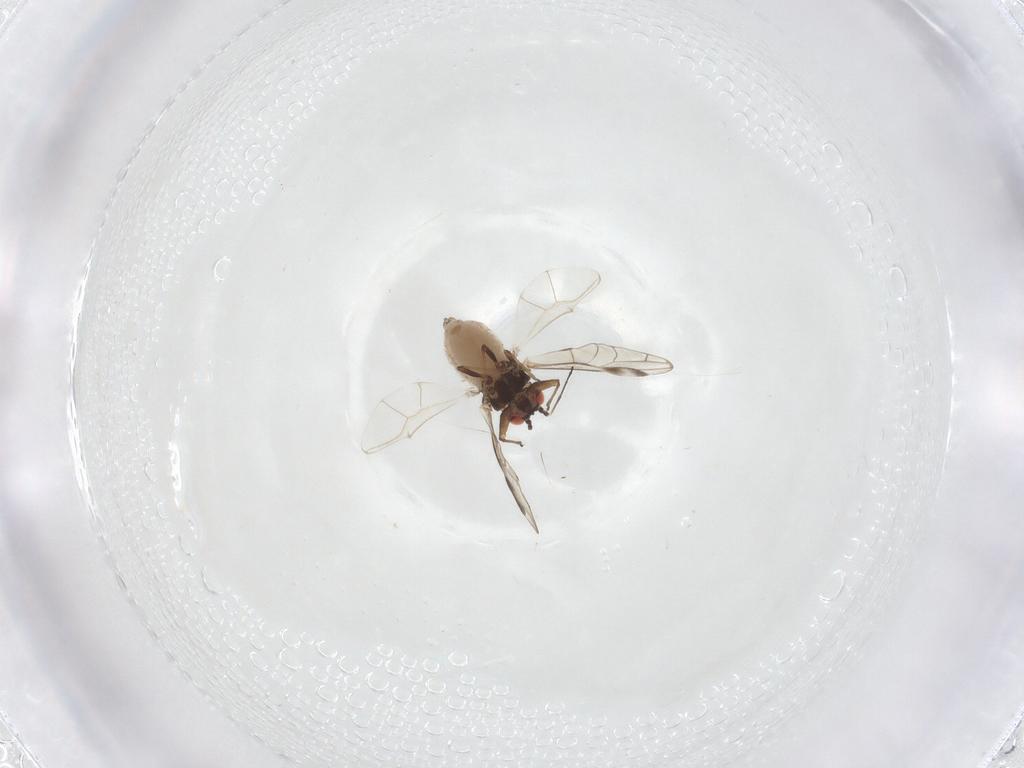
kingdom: Animalia
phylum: Arthropoda
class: Insecta
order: Hemiptera
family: Aphididae
